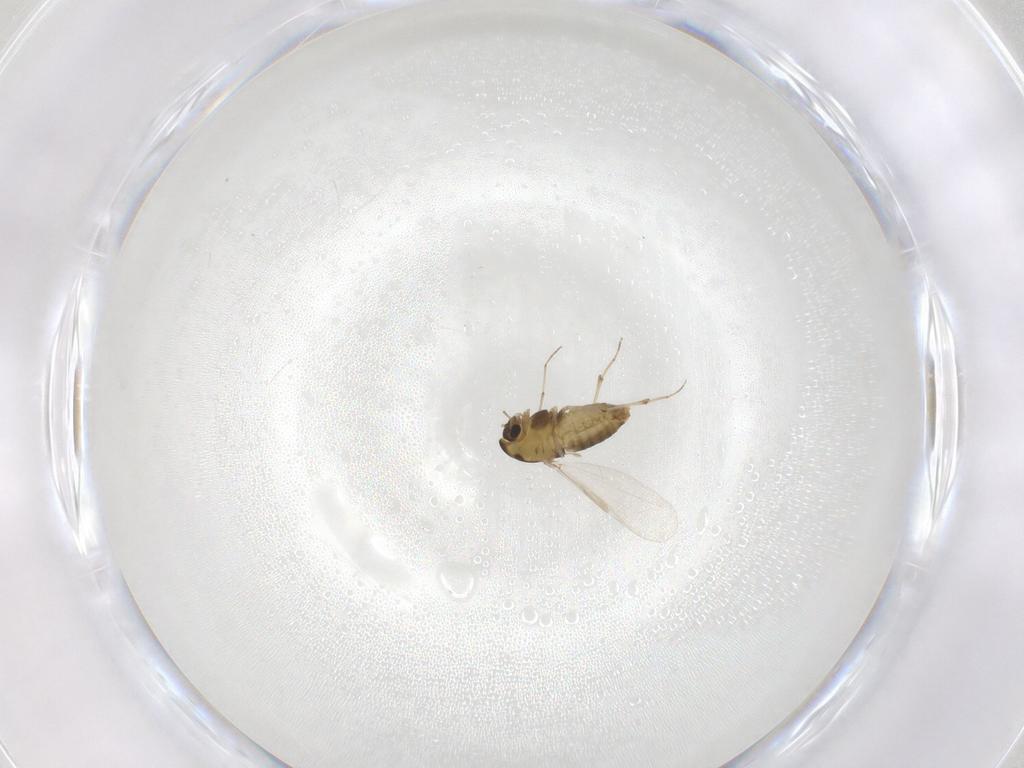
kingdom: Animalia
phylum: Arthropoda
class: Insecta
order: Diptera
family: Chironomidae
